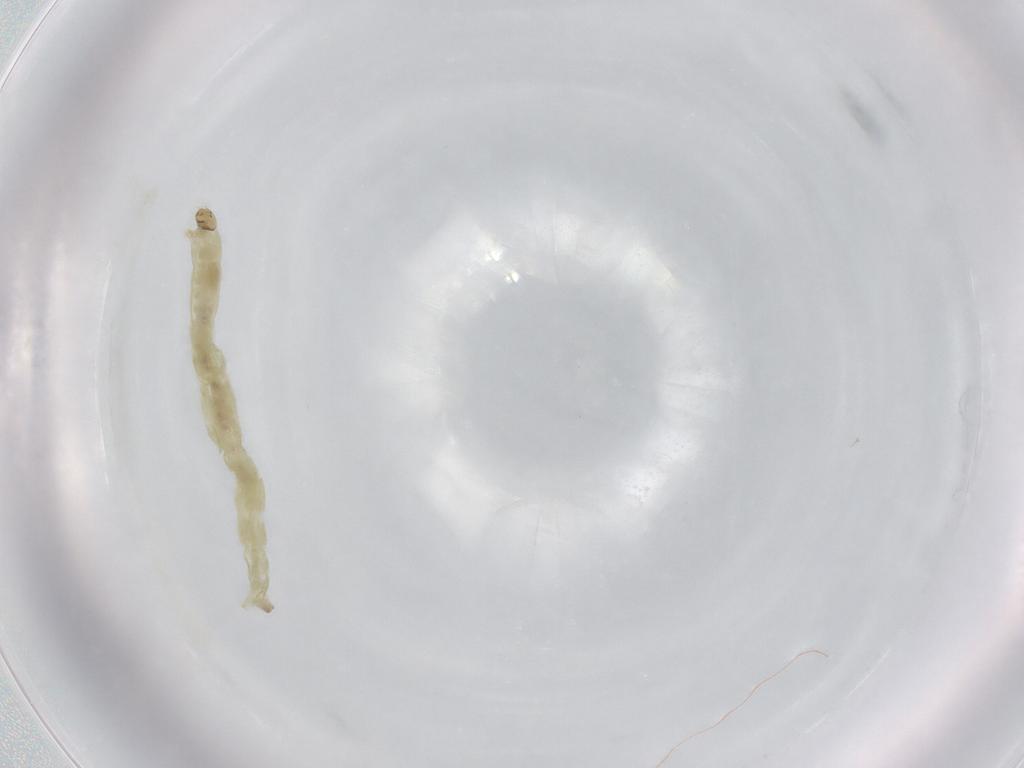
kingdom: Animalia
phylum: Arthropoda
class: Insecta
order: Diptera
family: Chironomidae
